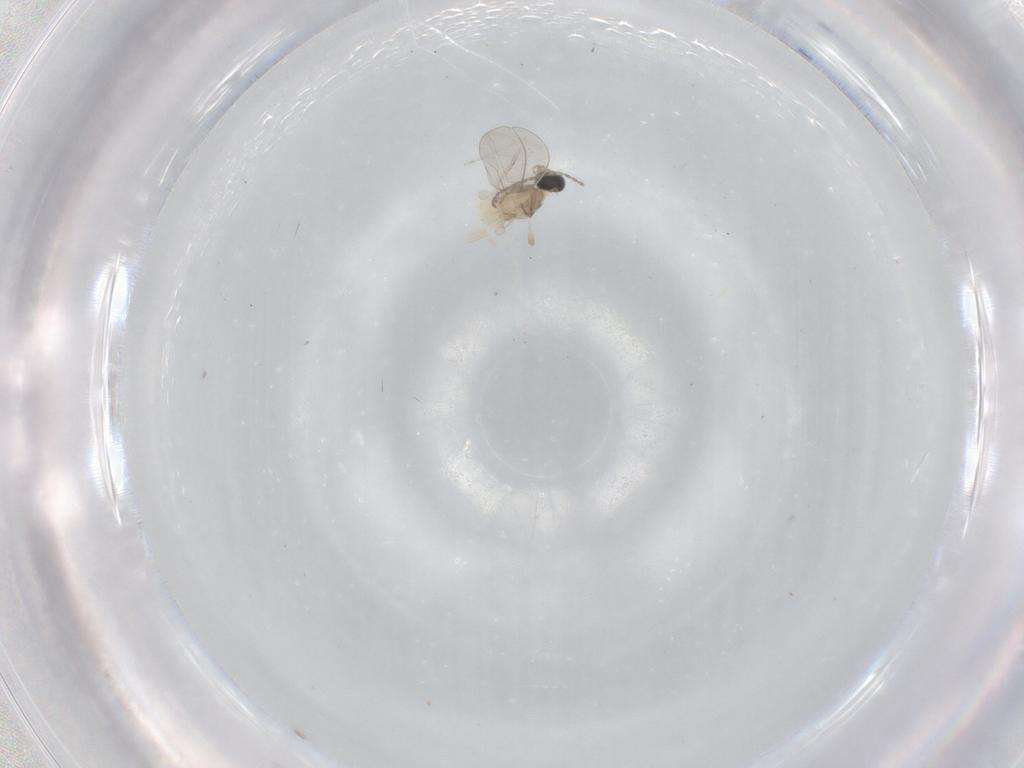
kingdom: Animalia
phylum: Arthropoda
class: Insecta
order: Diptera
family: Cecidomyiidae
